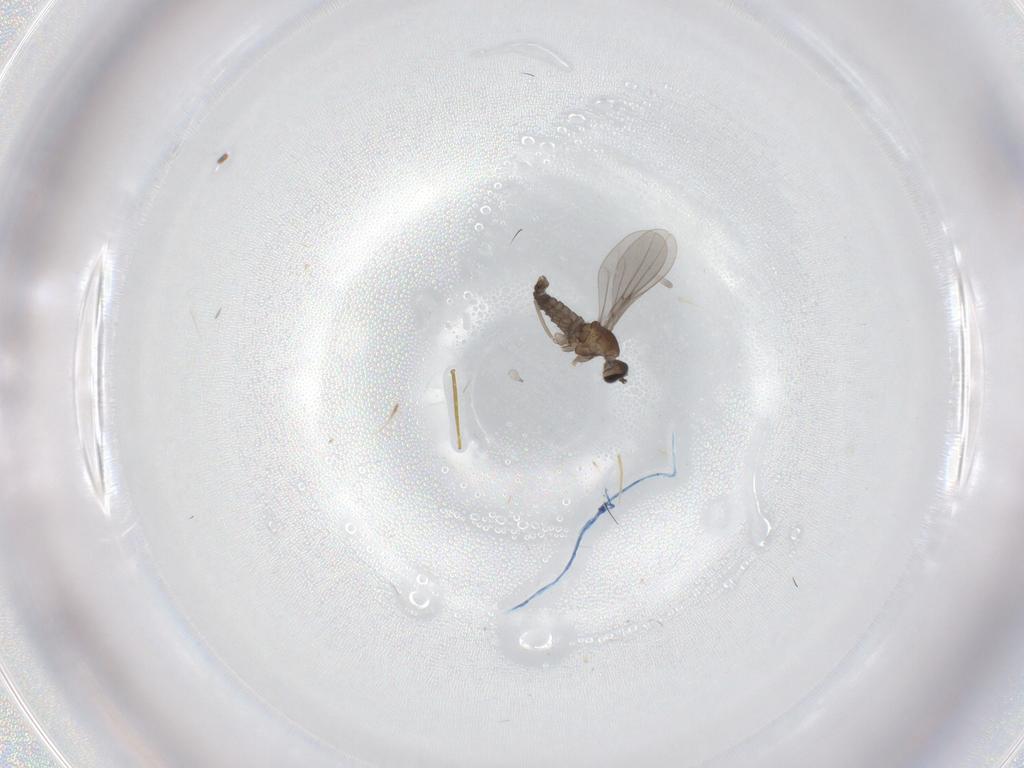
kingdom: Animalia
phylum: Arthropoda
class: Insecta
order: Diptera
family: Cecidomyiidae
